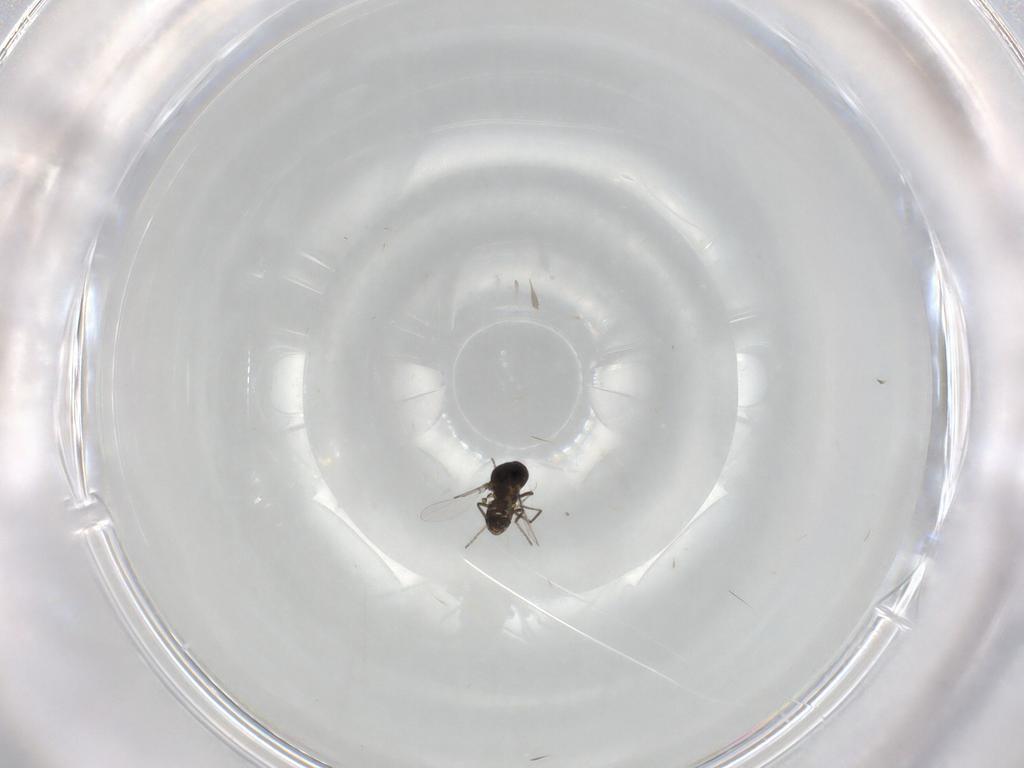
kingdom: Animalia
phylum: Arthropoda
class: Insecta
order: Diptera
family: Ceratopogonidae
